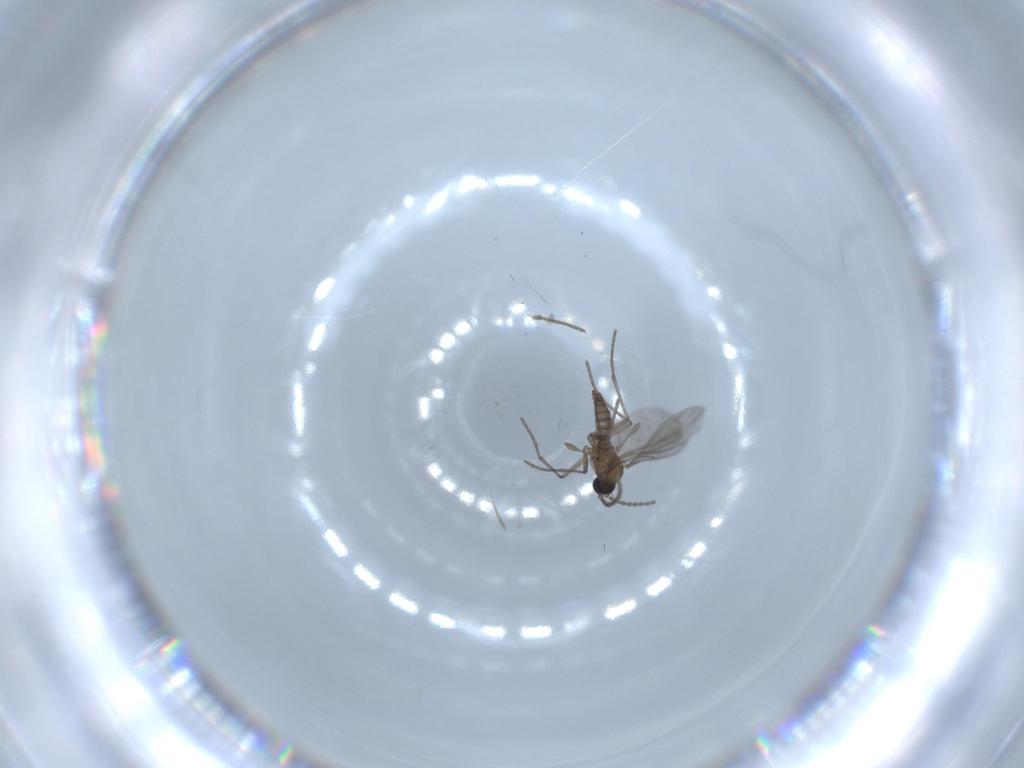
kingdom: Animalia
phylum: Arthropoda
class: Insecta
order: Diptera
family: Sciaridae
